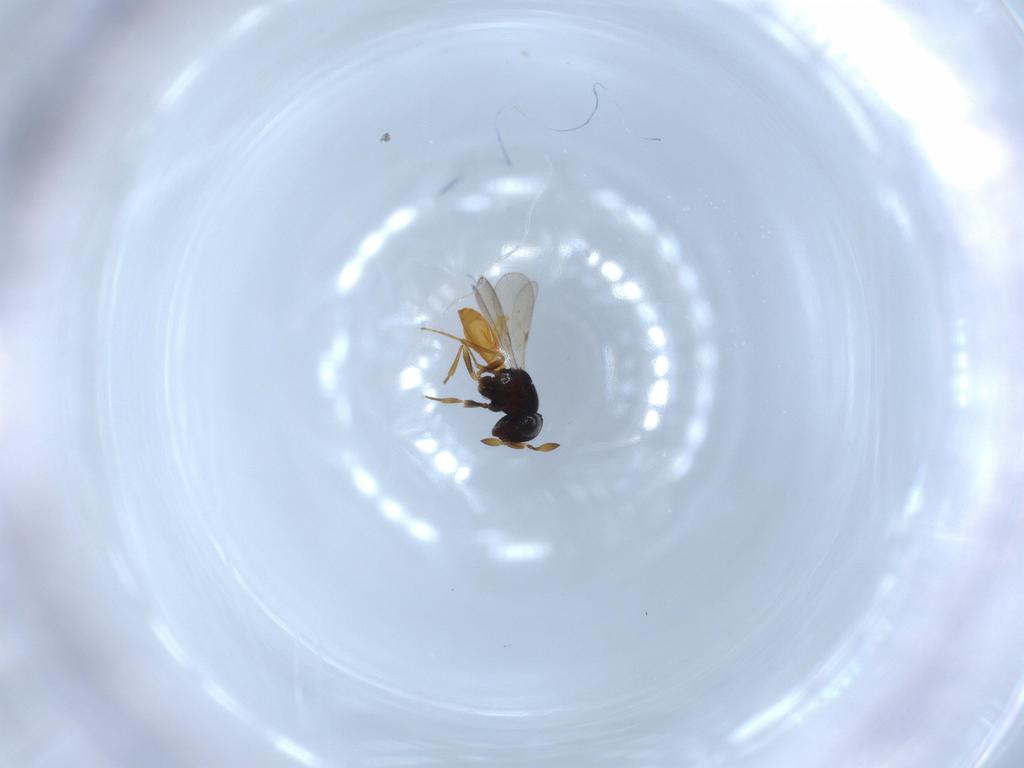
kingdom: Animalia
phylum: Arthropoda
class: Insecta
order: Hymenoptera
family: Scelionidae
